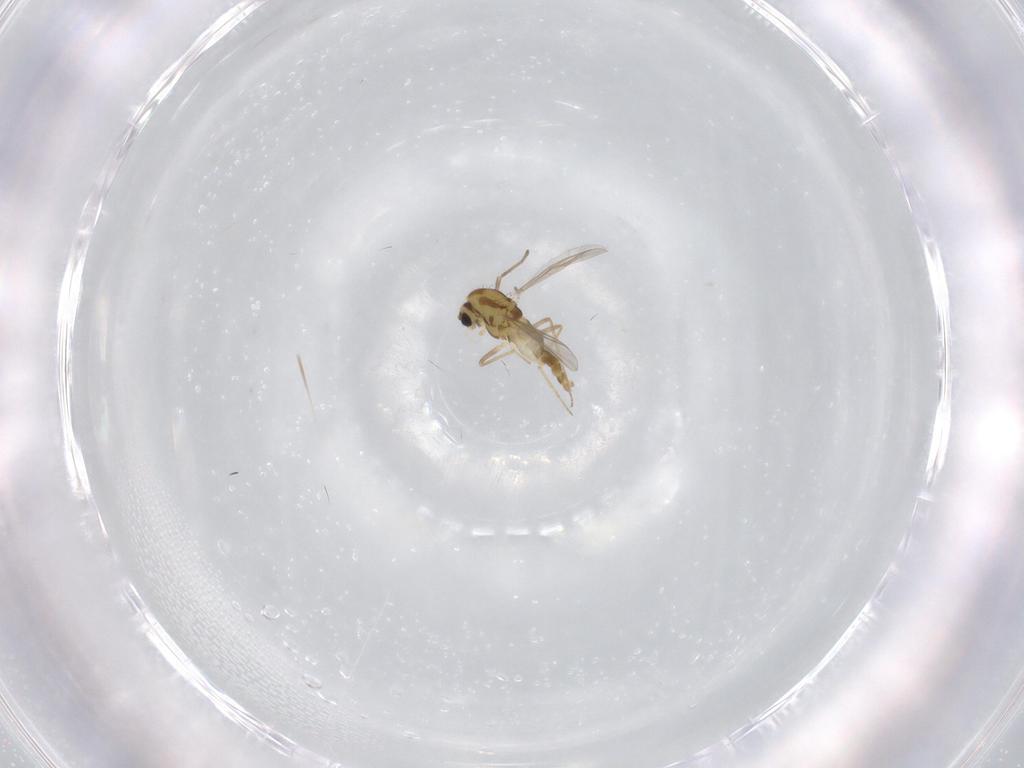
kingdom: Animalia
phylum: Arthropoda
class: Insecta
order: Diptera
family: Chironomidae
